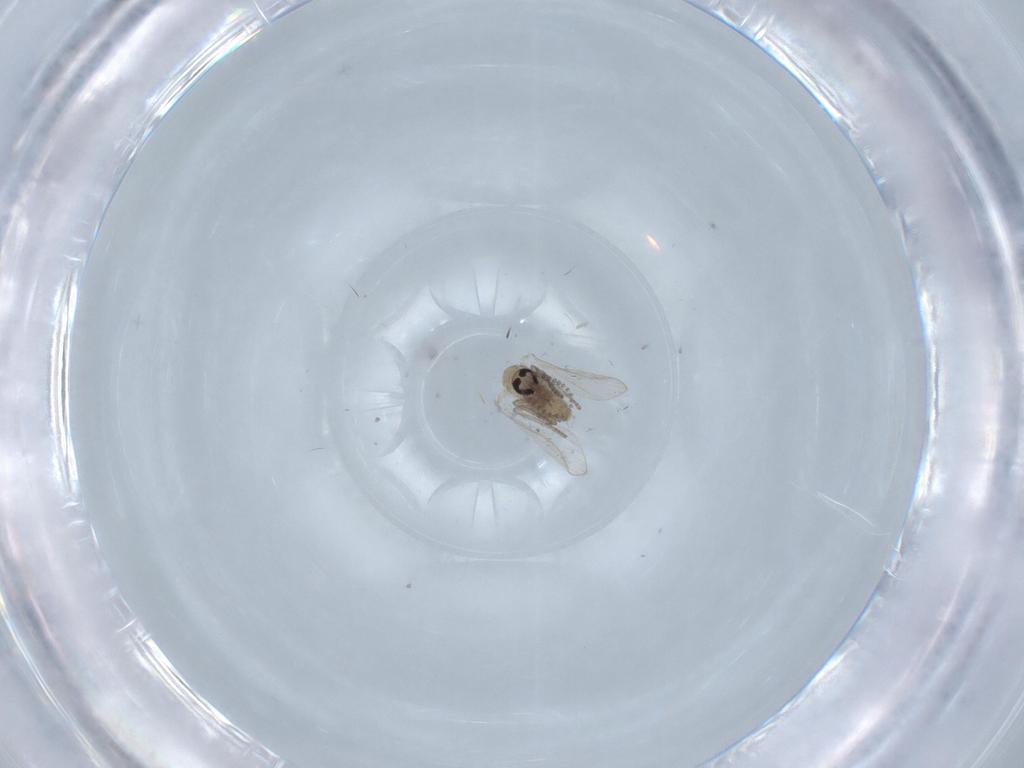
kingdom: Animalia
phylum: Arthropoda
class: Insecta
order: Diptera
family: Psychodidae
